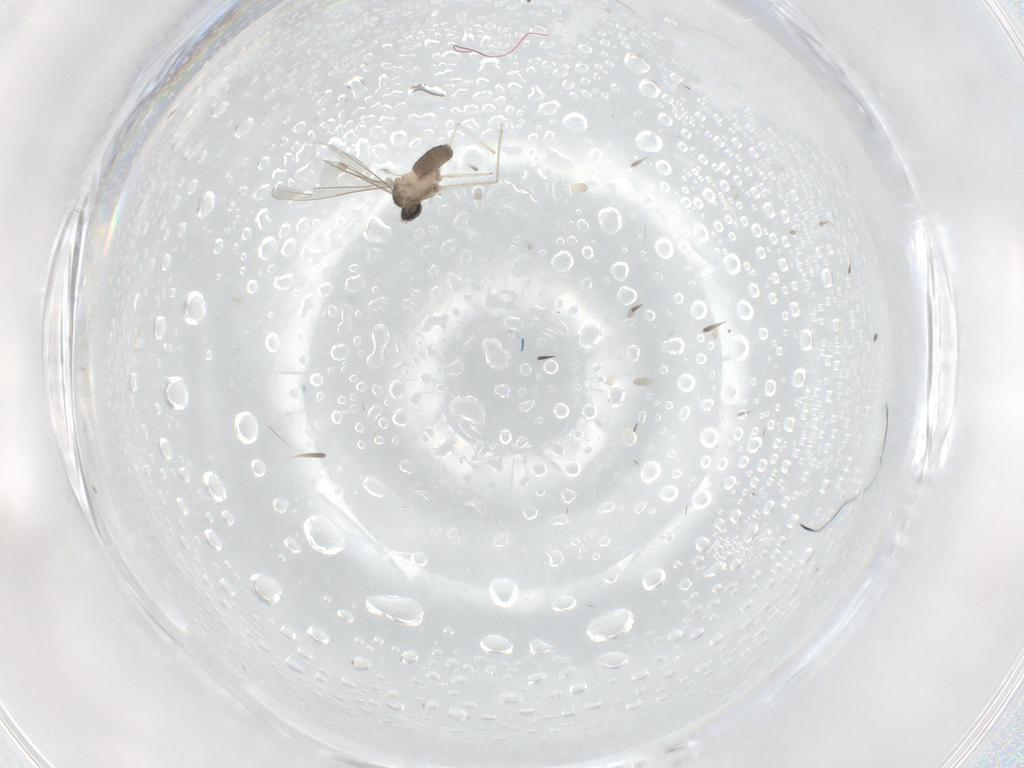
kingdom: Animalia
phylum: Arthropoda
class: Insecta
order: Diptera
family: Cecidomyiidae
